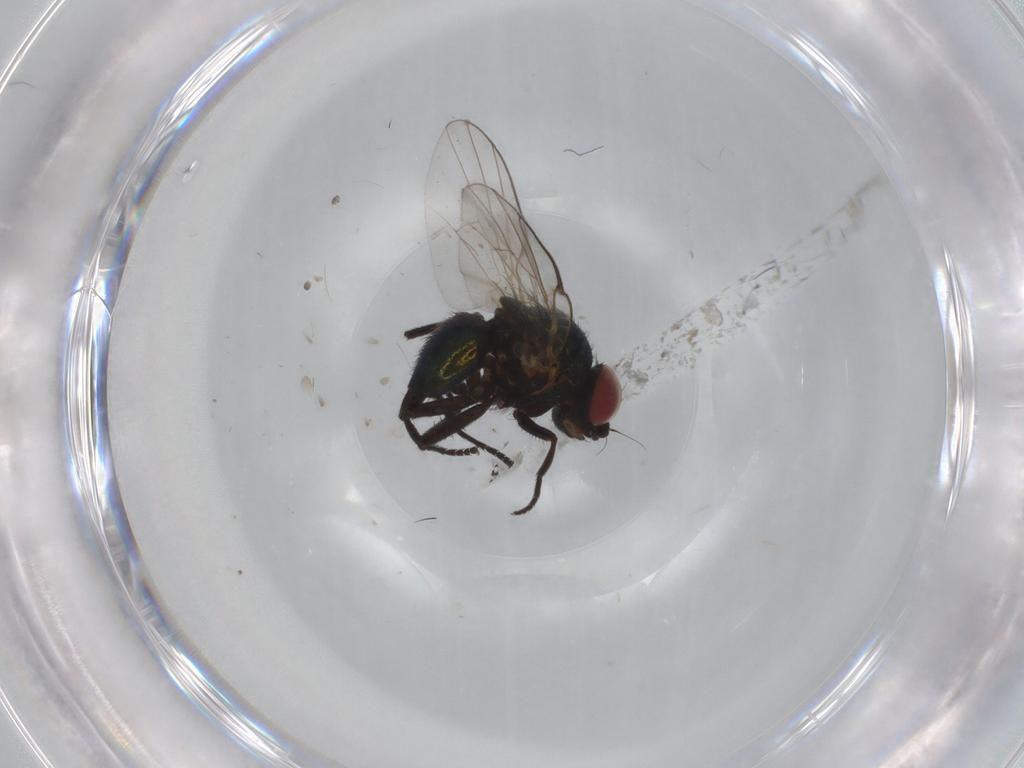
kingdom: Animalia
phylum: Arthropoda
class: Insecta
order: Diptera
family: Agromyzidae
